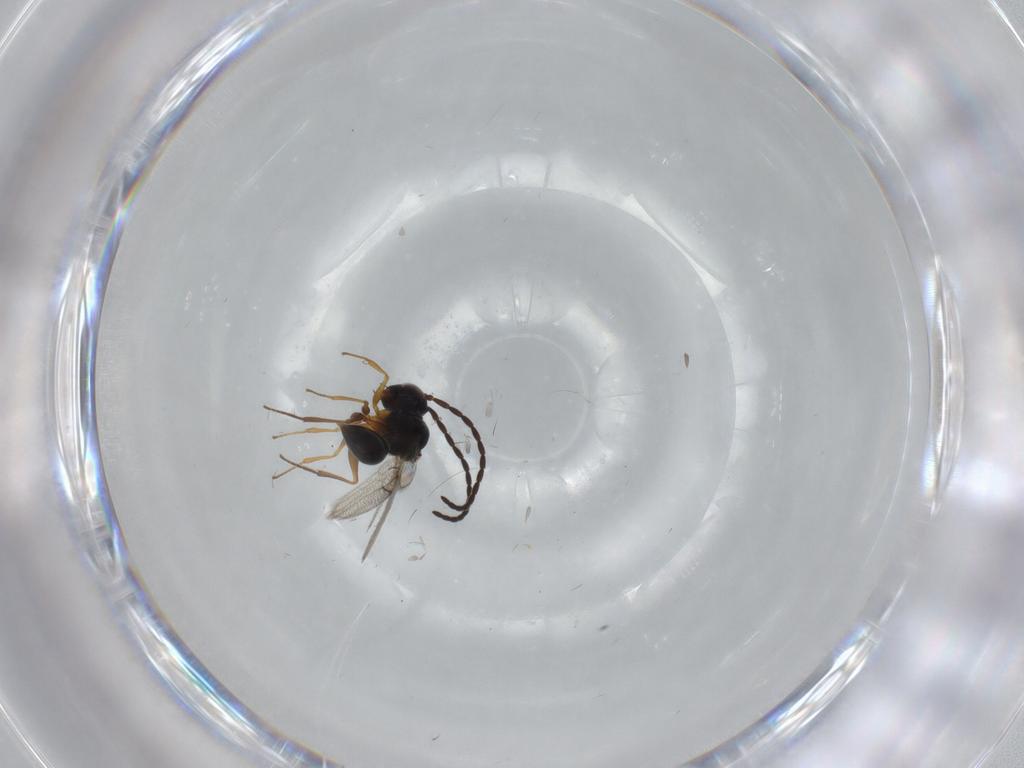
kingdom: Animalia
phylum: Arthropoda
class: Insecta
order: Hymenoptera
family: Figitidae
